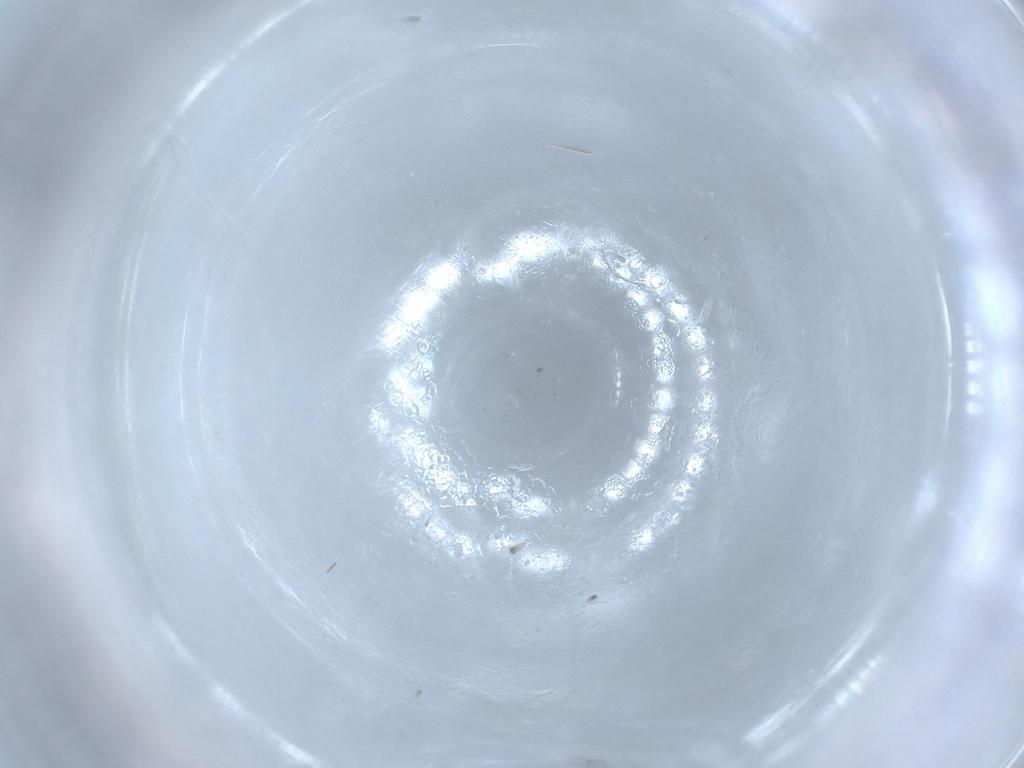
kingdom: Animalia
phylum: Arthropoda
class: Insecta
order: Diptera
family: Cecidomyiidae
